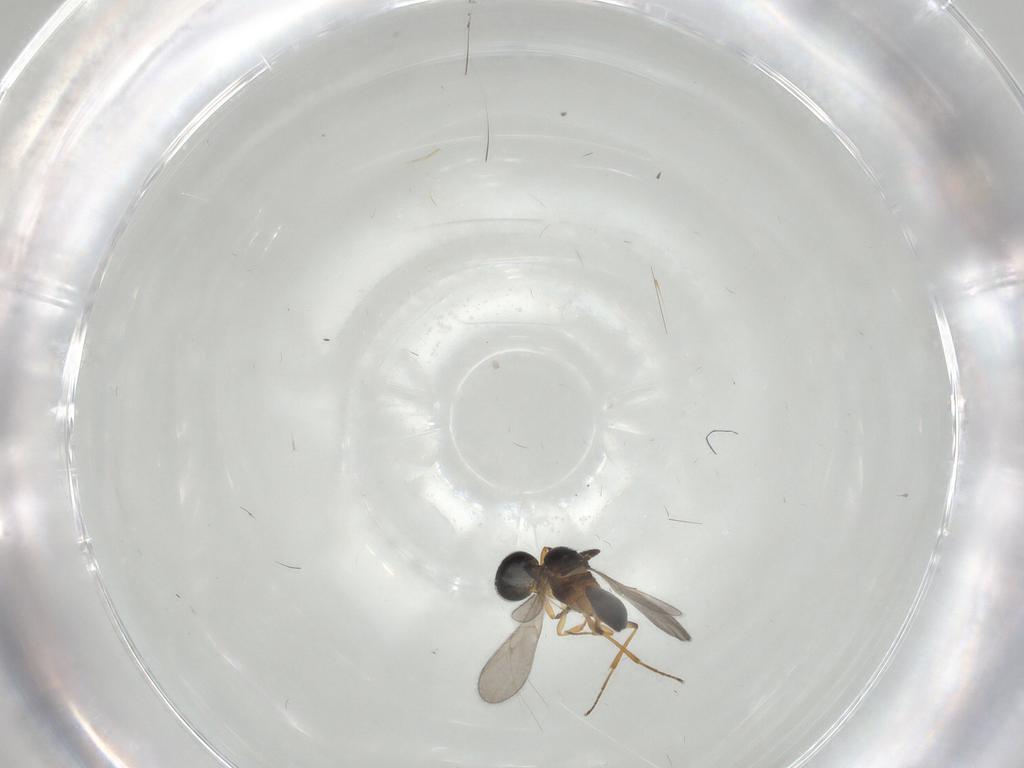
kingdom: Animalia
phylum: Arthropoda
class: Insecta
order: Hymenoptera
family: Scelionidae
